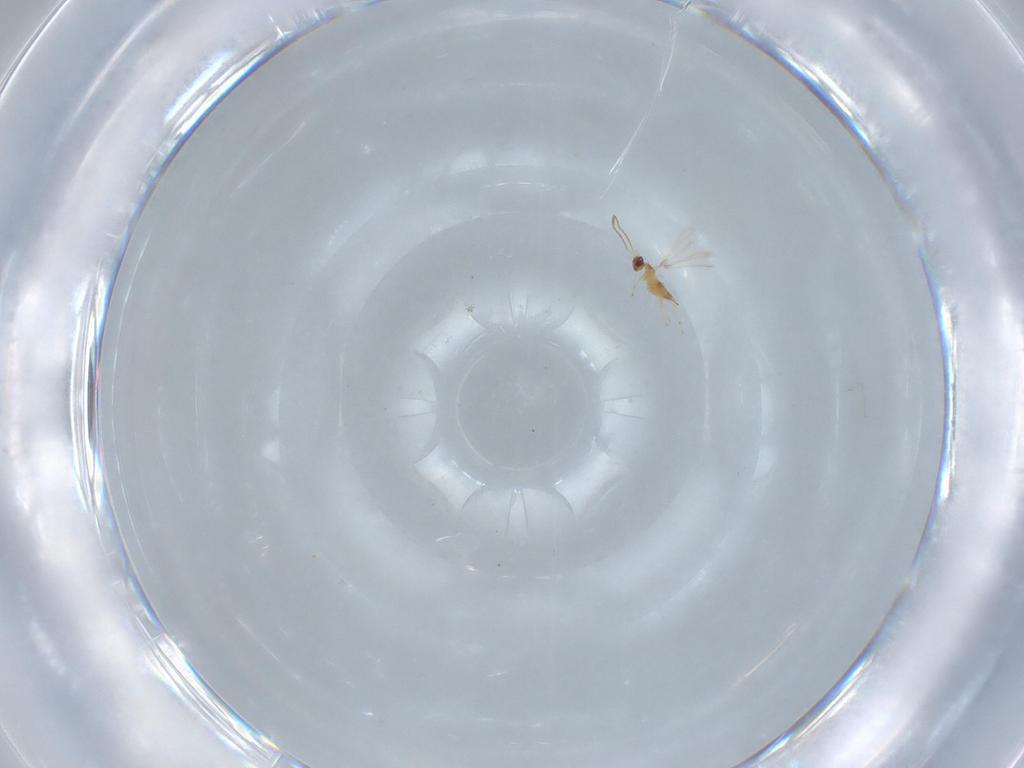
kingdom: Animalia
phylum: Arthropoda
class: Insecta
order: Hymenoptera
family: Mymaridae
